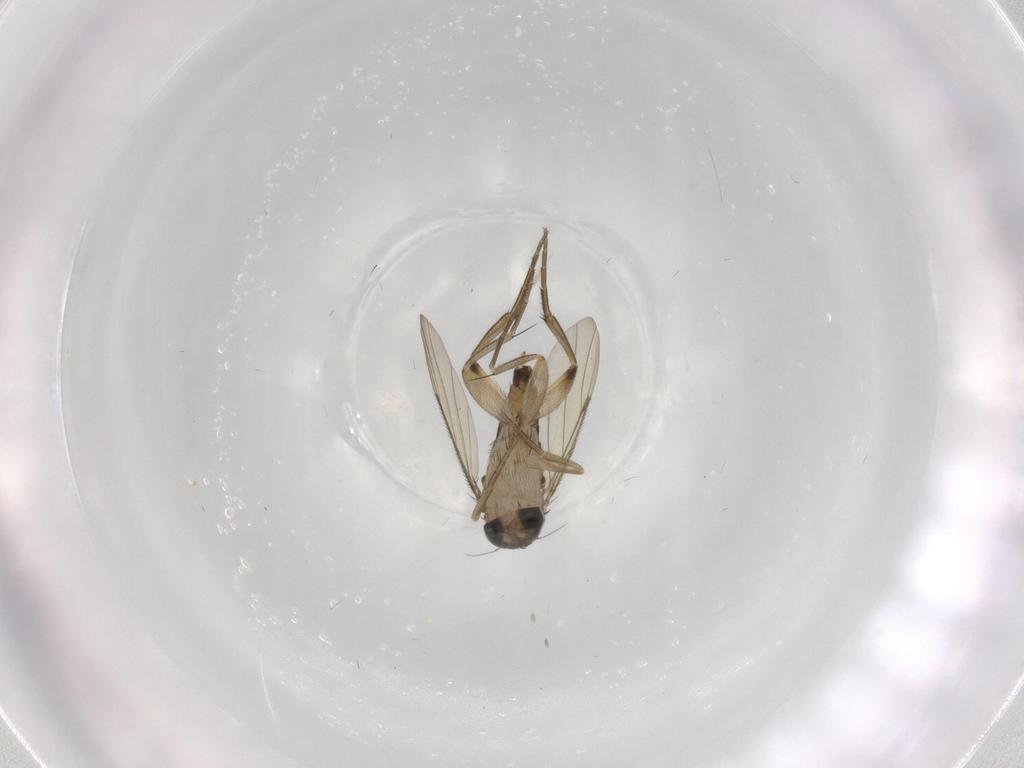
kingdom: Animalia
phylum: Arthropoda
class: Insecta
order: Diptera
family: Phoridae
